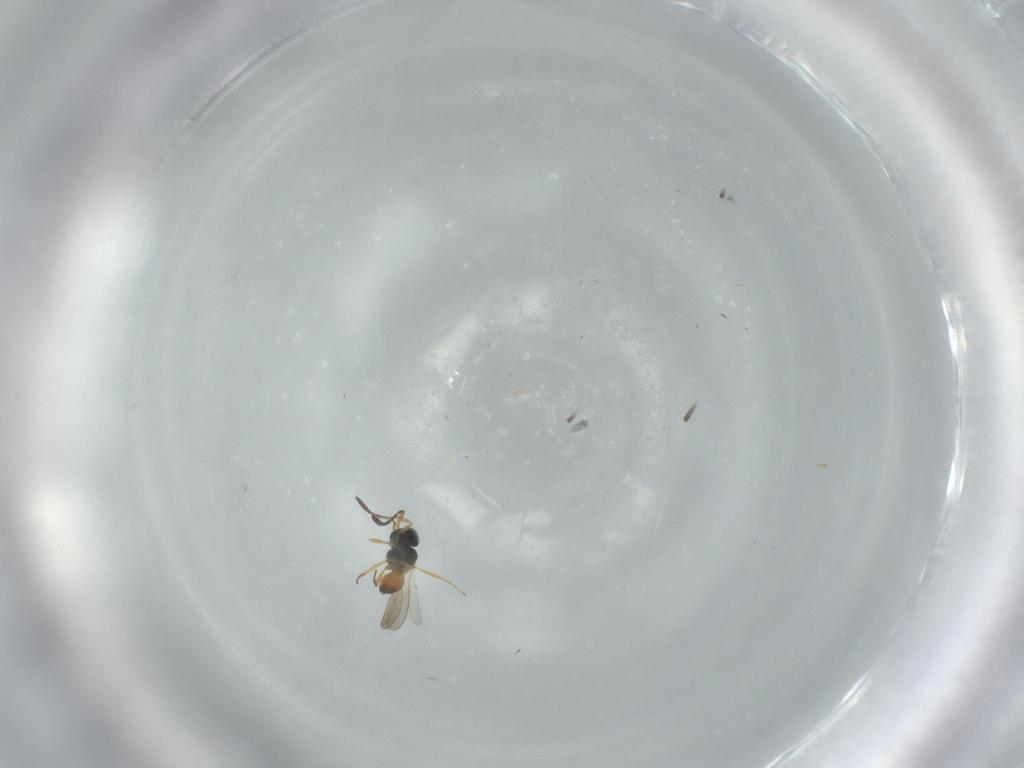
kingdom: Animalia
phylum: Arthropoda
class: Insecta
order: Hymenoptera
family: Scelionidae
